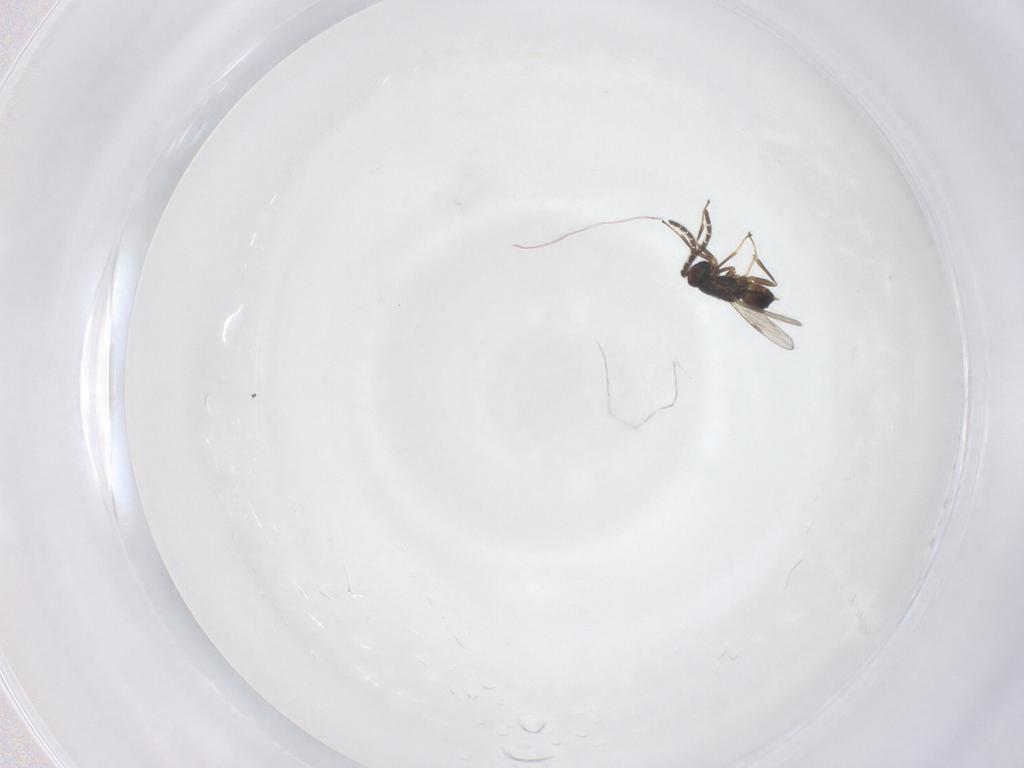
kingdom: Animalia
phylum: Arthropoda
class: Insecta
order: Hymenoptera
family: Encyrtidae
